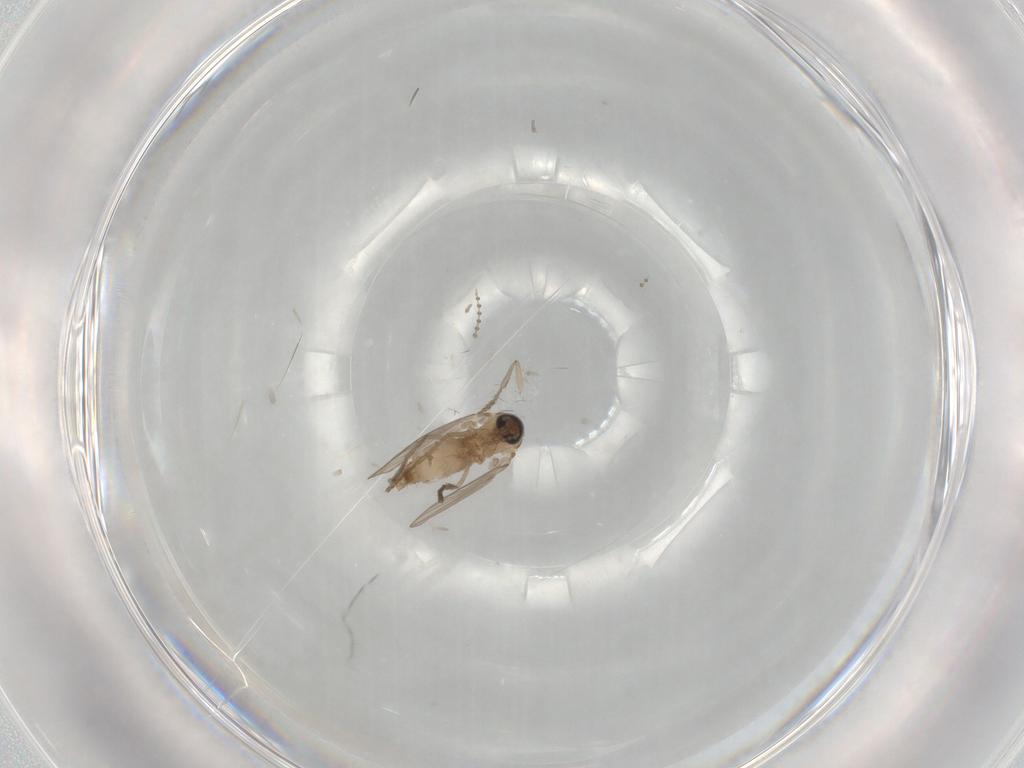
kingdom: Animalia
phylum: Arthropoda
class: Insecta
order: Diptera
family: Psychodidae
